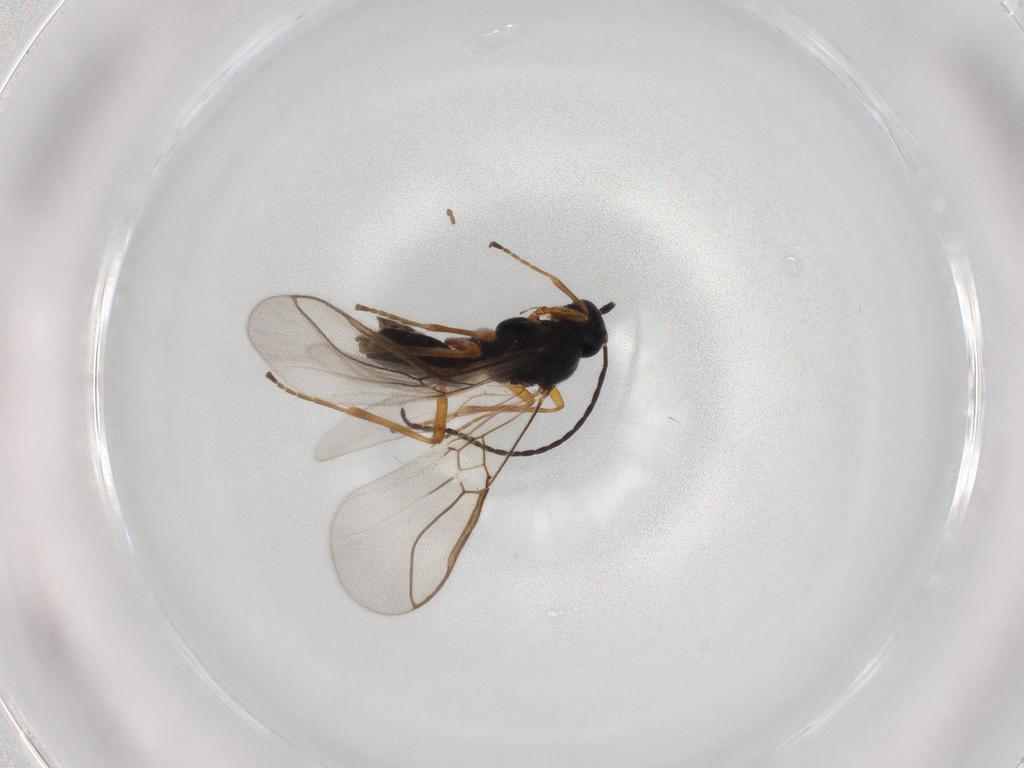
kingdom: Animalia
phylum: Arthropoda
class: Insecta
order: Hymenoptera
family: Diapriidae
